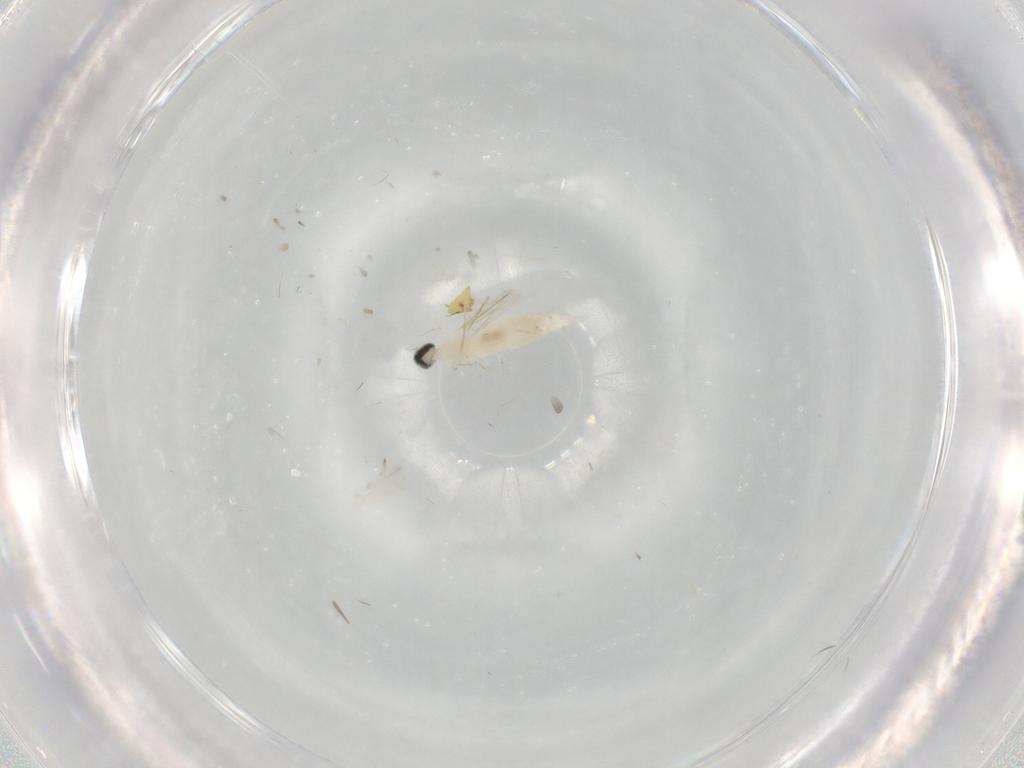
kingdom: Animalia
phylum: Arthropoda
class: Insecta
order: Diptera
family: Cecidomyiidae
